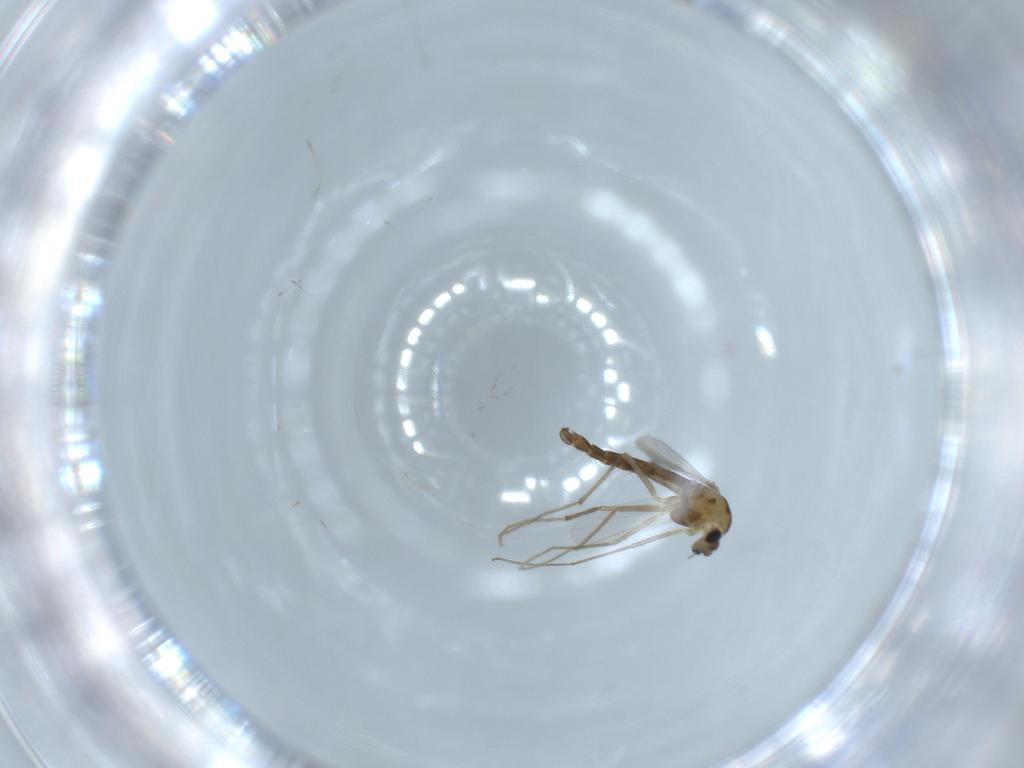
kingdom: Animalia
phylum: Arthropoda
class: Insecta
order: Diptera
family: Chironomidae
